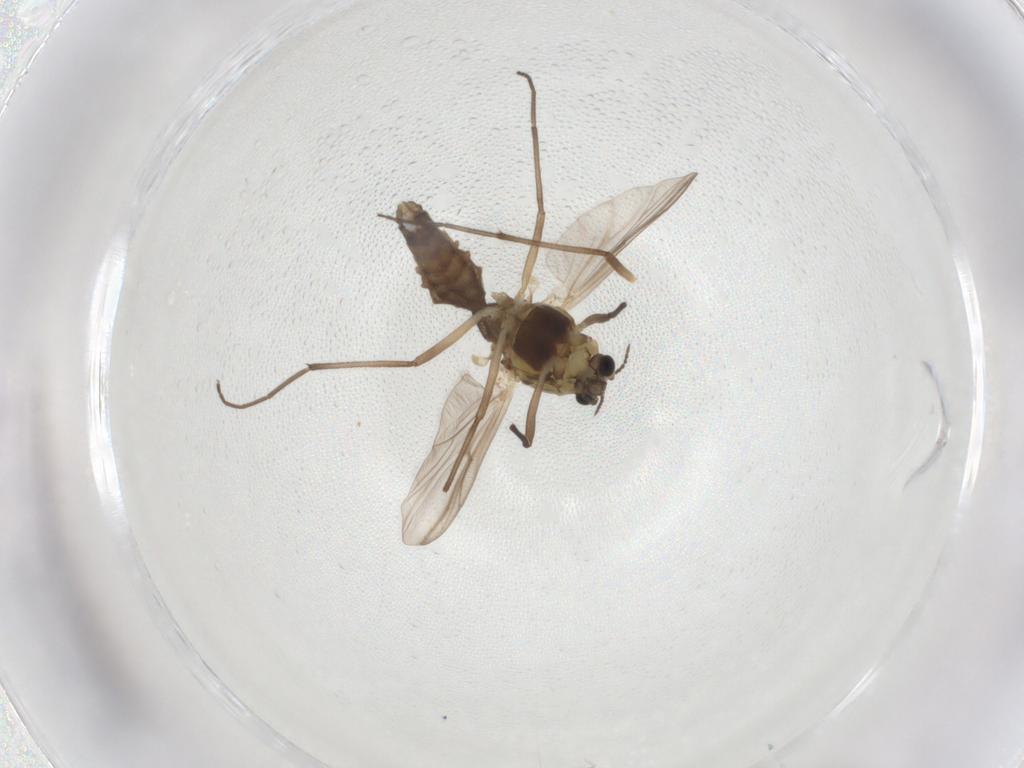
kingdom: Animalia
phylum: Arthropoda
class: Insecta
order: Diptera
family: Chironomidae
